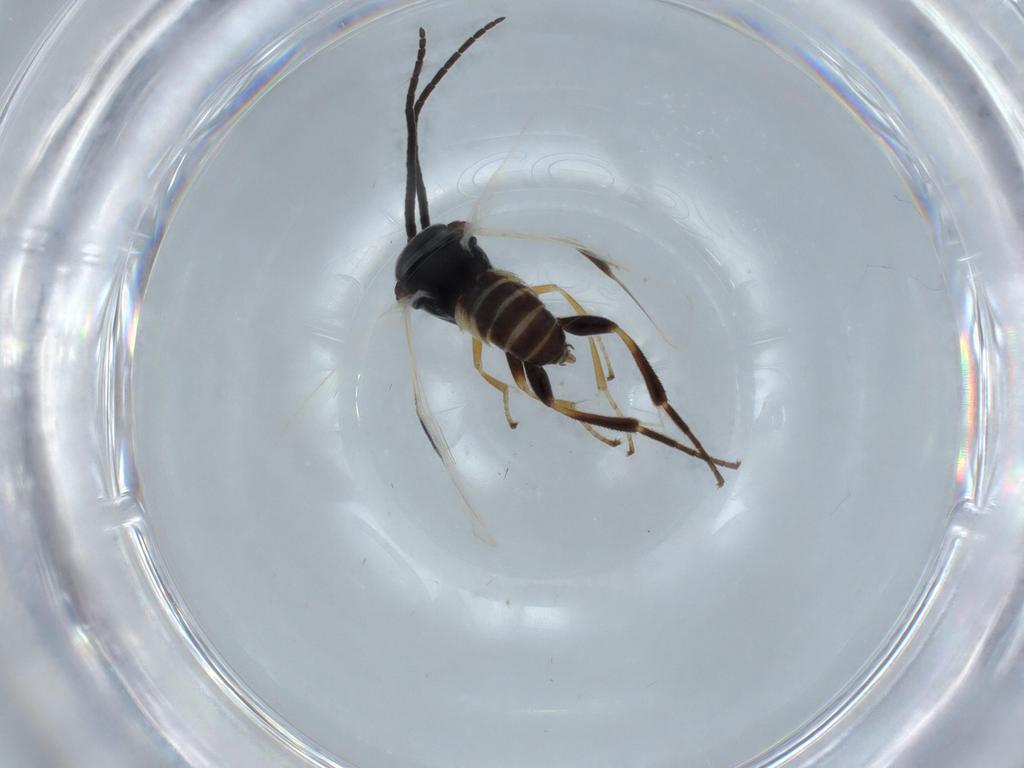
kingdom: Animalia
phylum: Arthropoda
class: Insecta
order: Hymenoptera
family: Braconidae
